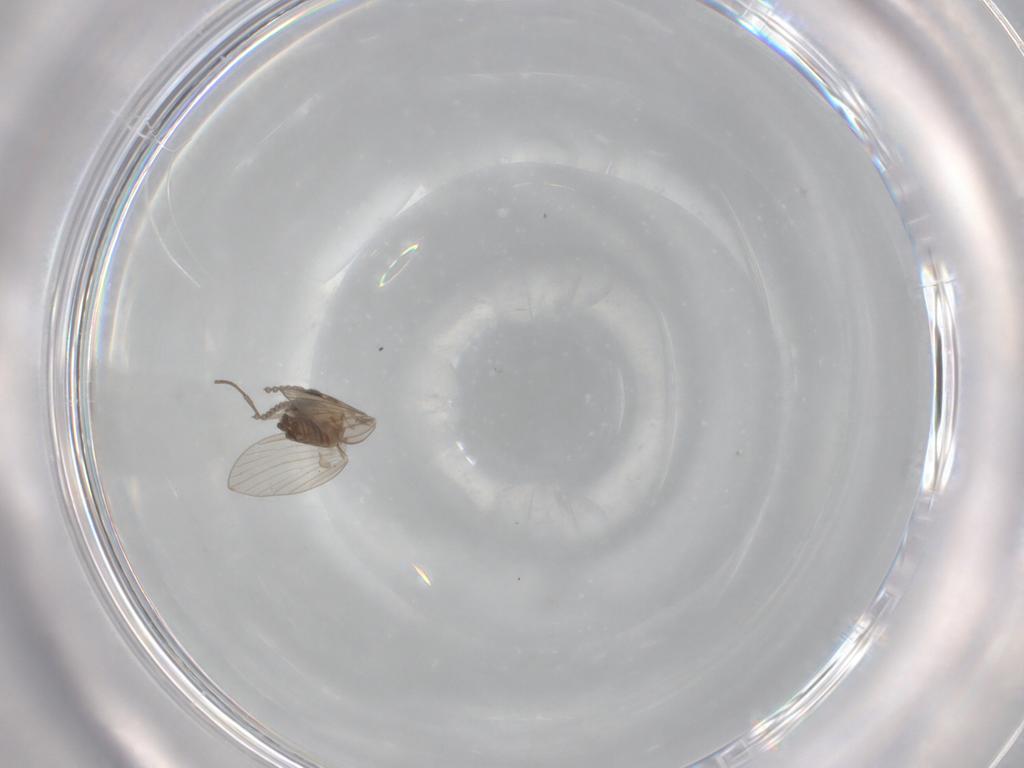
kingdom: Animalia
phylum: Arthropoda
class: Insecta
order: Diptera
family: Psychodidae
